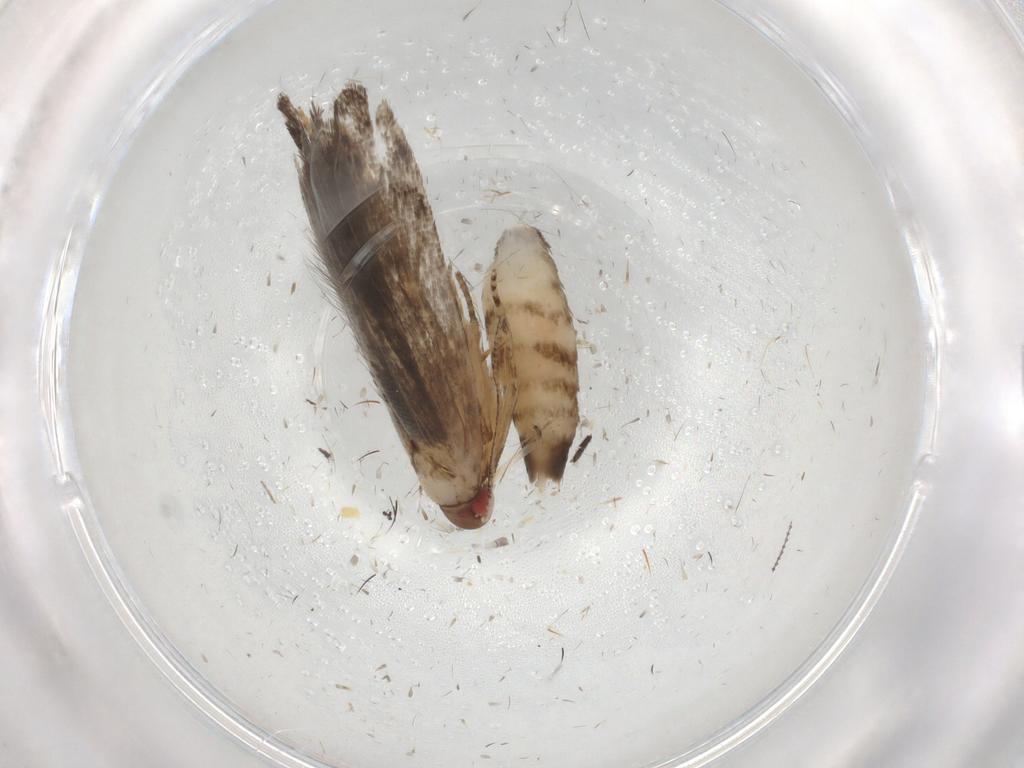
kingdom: Animalia
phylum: Arthropoda
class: Insecta
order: Lepidoptera
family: Gelechiidae
